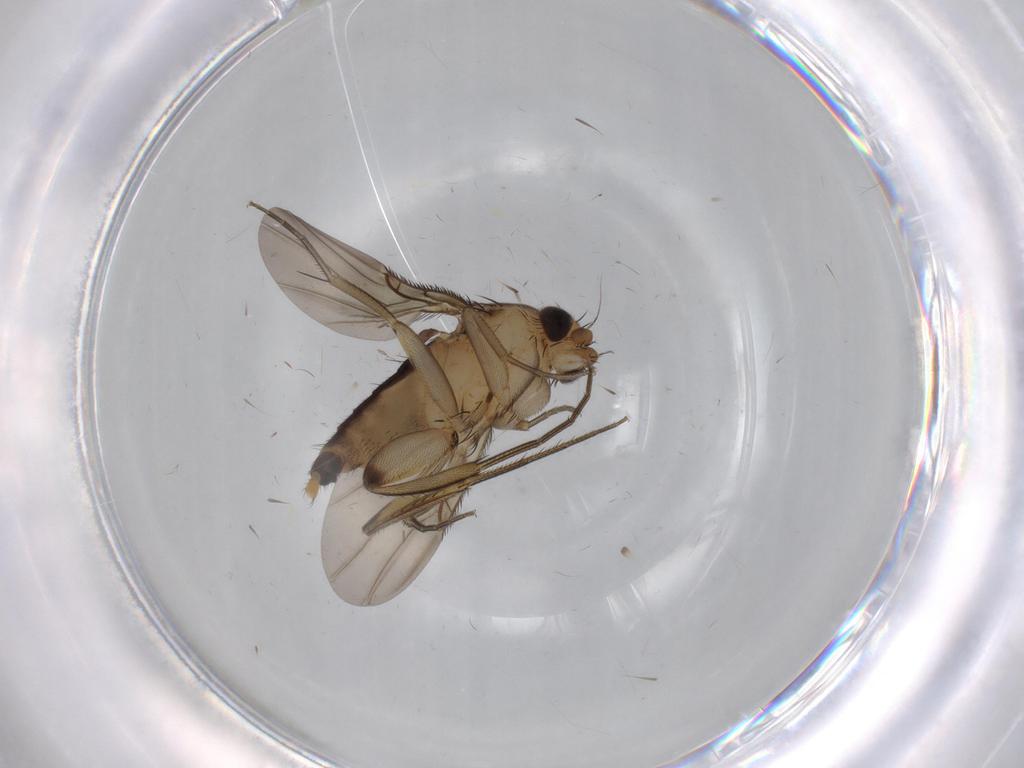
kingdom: Animalia
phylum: Arthropoda
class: Insecta
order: Diptera
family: Phoridae
